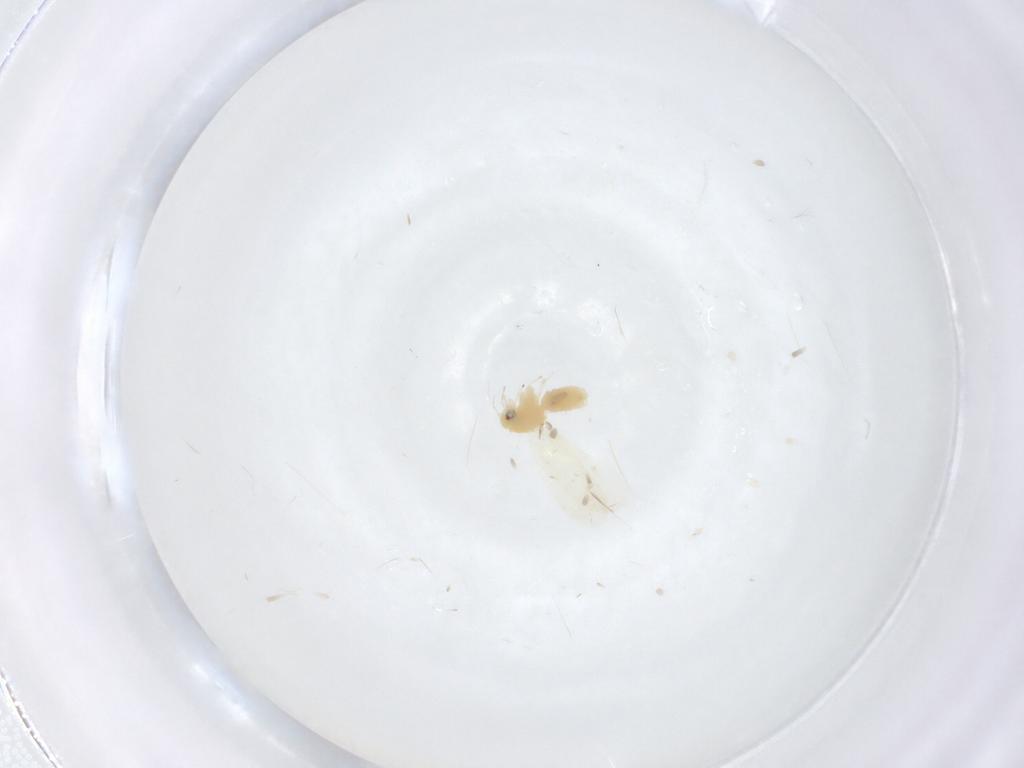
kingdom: Animalia
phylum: Arthropoda
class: Insecta
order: Hemiptera
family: Aleyrodidae
